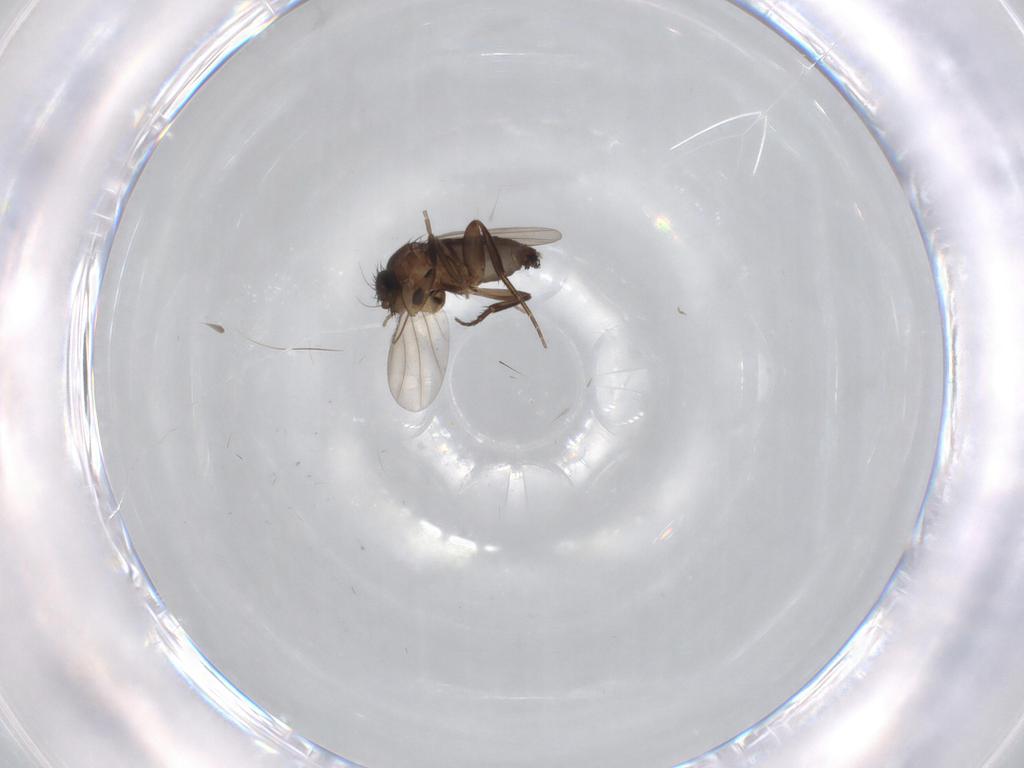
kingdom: Animalia
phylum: Arthropoda
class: Insecta
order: Diptera
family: Phoridae
